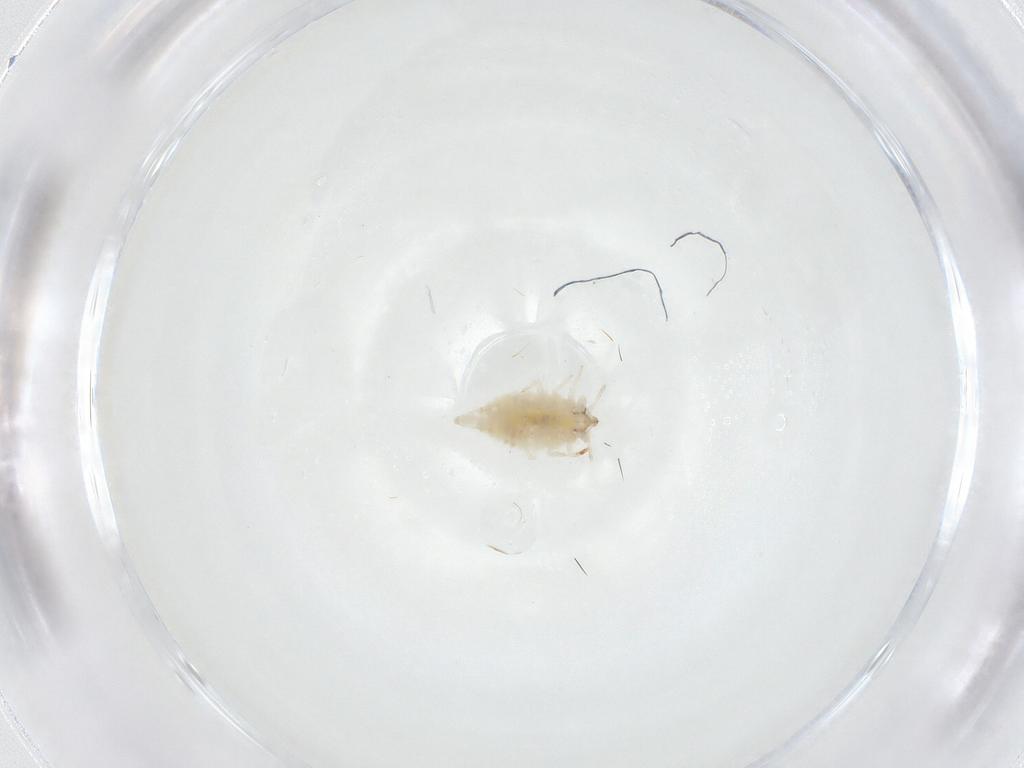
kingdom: Animalia
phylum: Arthropoda
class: Insecta
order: Neuroptera
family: Coniopterygidae
